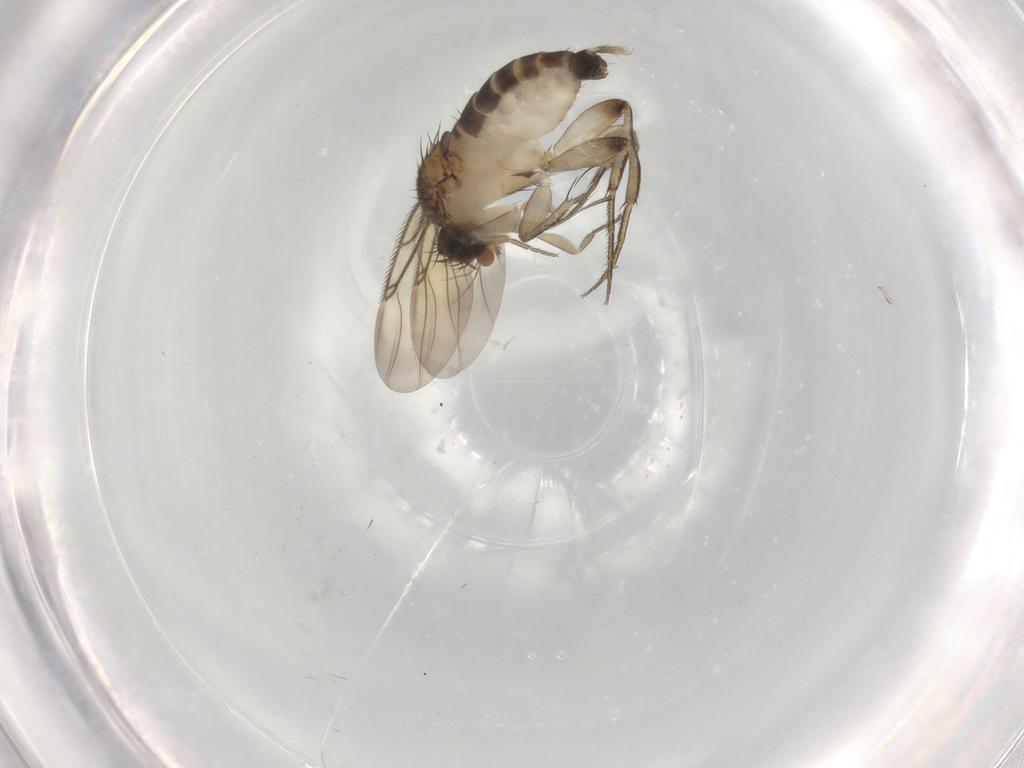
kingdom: Animalia
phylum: Arthropoda
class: Insecta
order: Diptera
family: Phoridae
